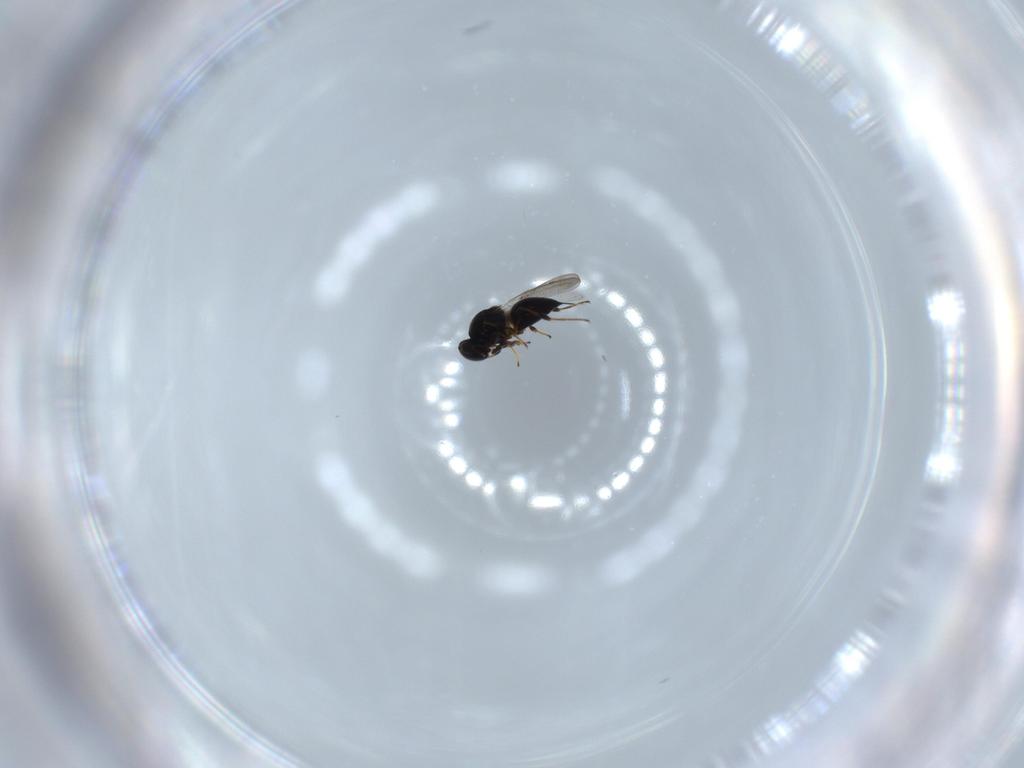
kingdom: Animalia
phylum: Arthropoda
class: Insecta
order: Hymenoptera
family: Platygastridae
